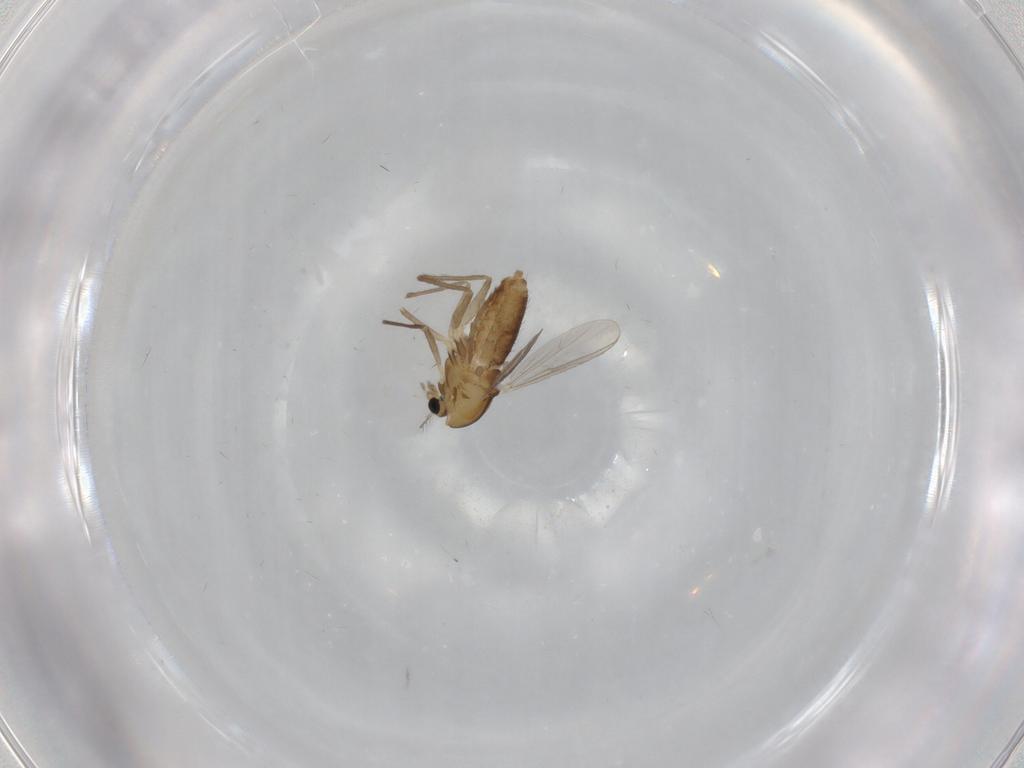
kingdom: Animalia
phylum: Arthropoda
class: Insecta
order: Diptera
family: Chironomidae
